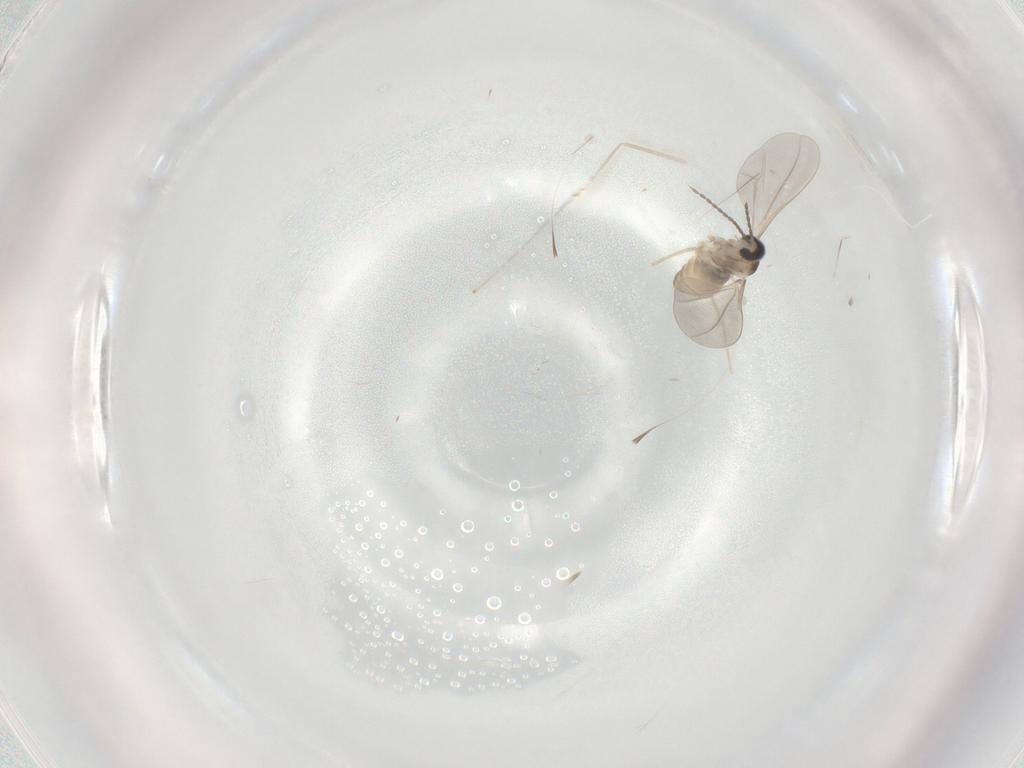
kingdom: Animalia
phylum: Arthropoda
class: Insecta
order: Diptera
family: Cecidomyiidae
